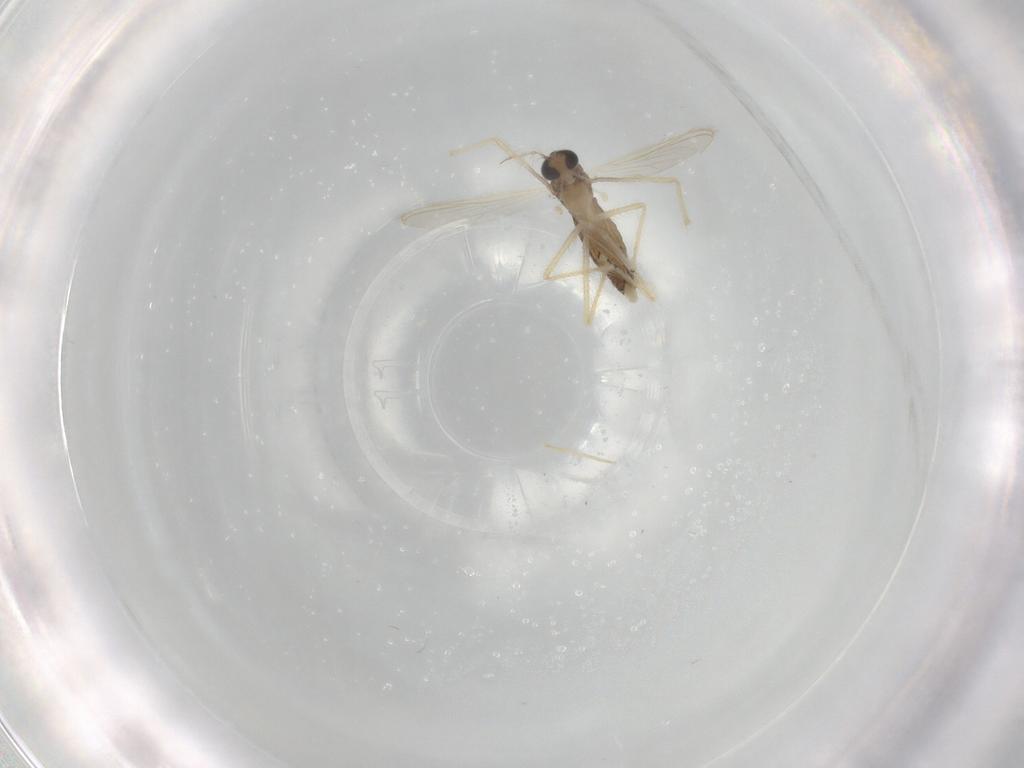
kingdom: Animalia
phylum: Arthropoda
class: Insecta
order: Diptera
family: Chironomidae
